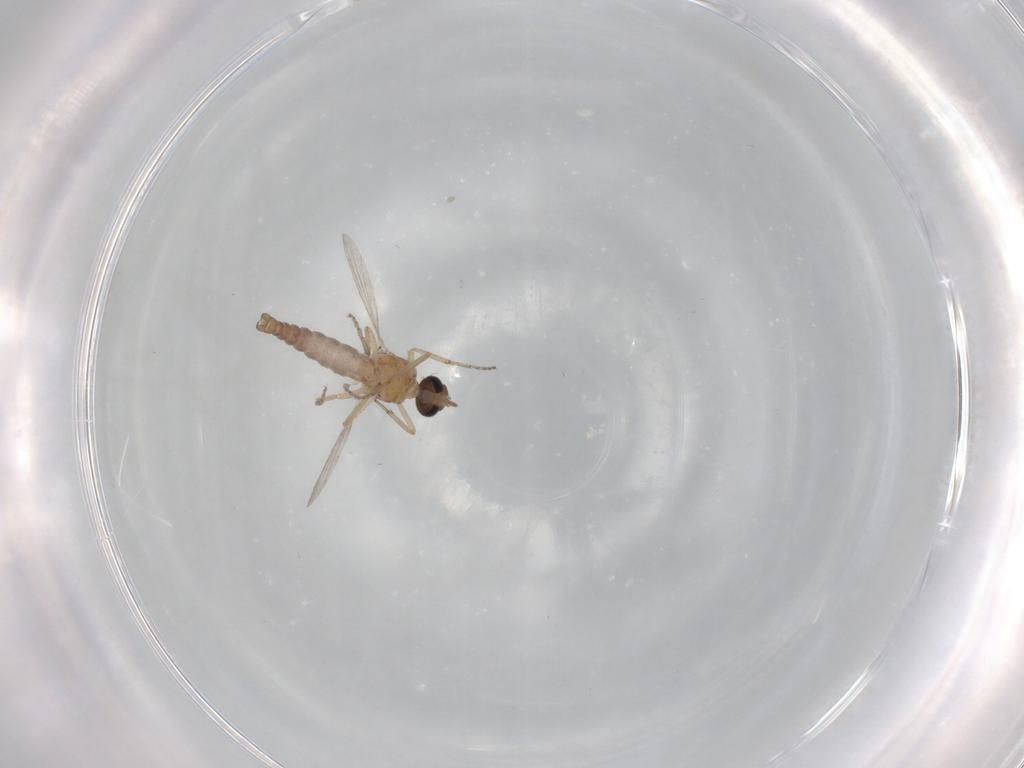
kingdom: Animalia
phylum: Arthropoda
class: Insecta
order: Diptera
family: Ceratopogonidae
